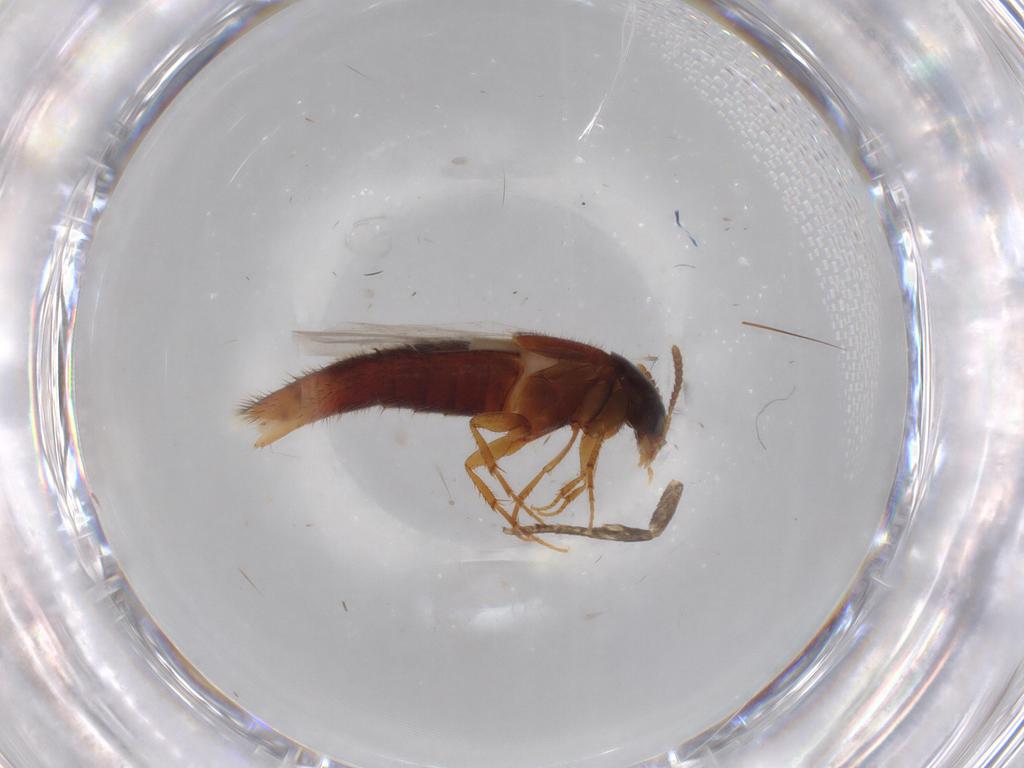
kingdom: Animalia
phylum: Arthropoda
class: Insecta
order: Coleoptera
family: Staphylinidae
